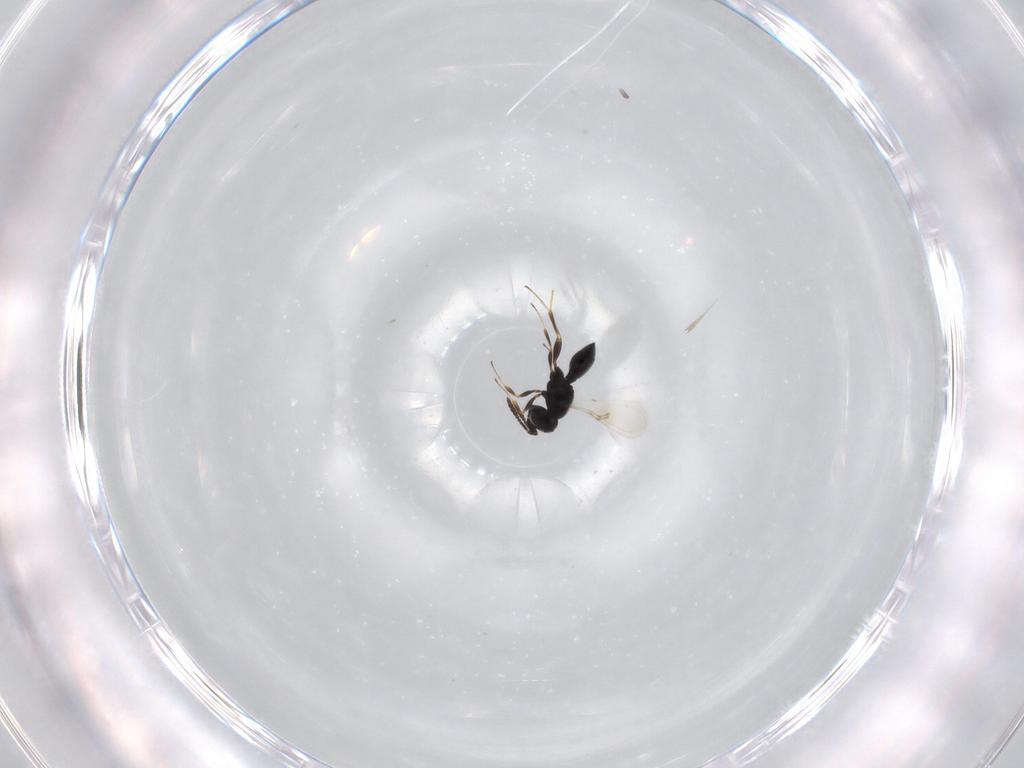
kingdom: Animalia
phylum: Arthropoda
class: Insecta
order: Hymenoptera
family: Scelionidae
